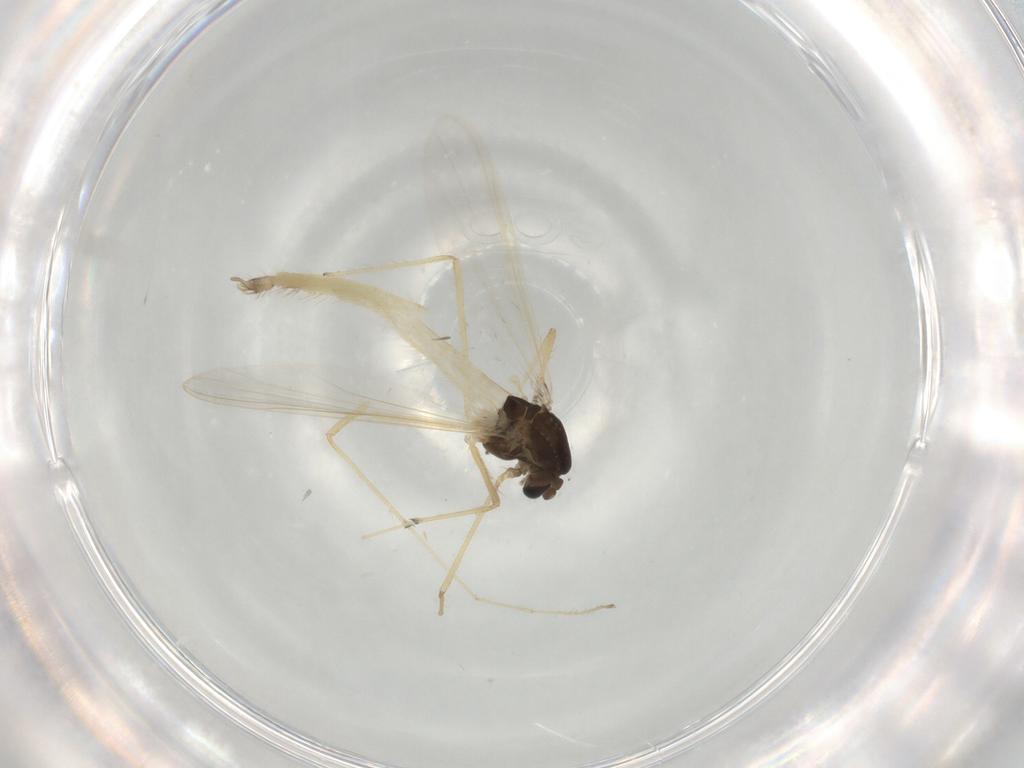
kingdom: Animalia
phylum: Arthropoda
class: Insecta
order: Diptera
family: Chironomidae
